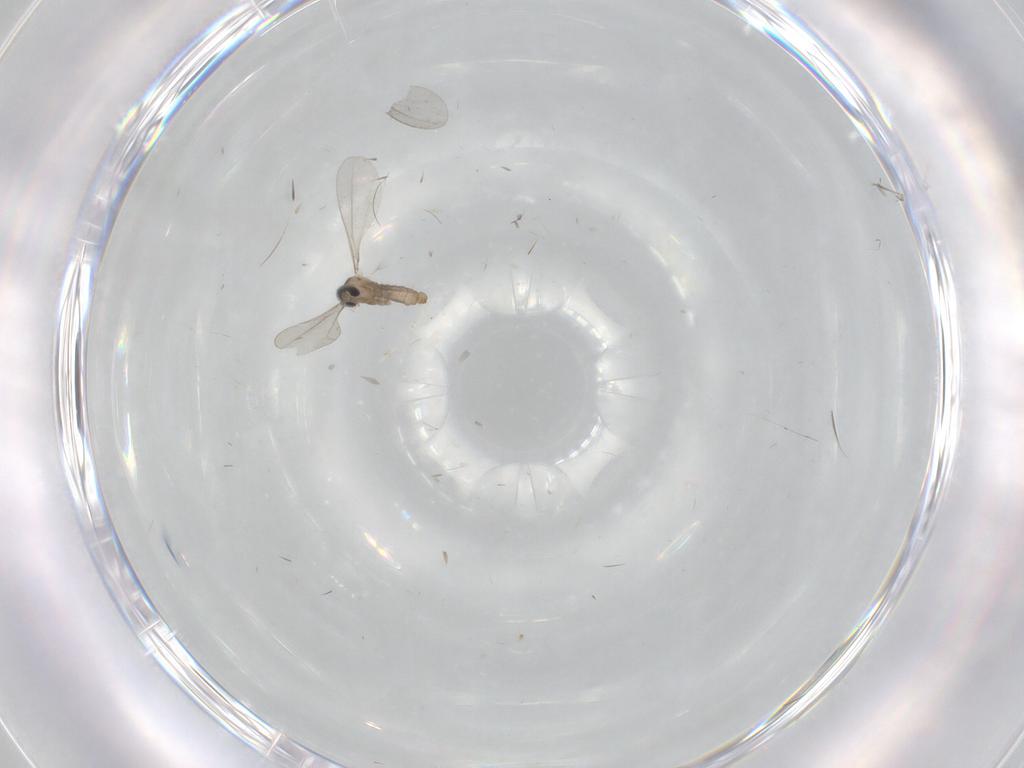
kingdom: Animalia
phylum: Arthropoda
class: Insecta
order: Diptera
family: Cecidomyiidae
